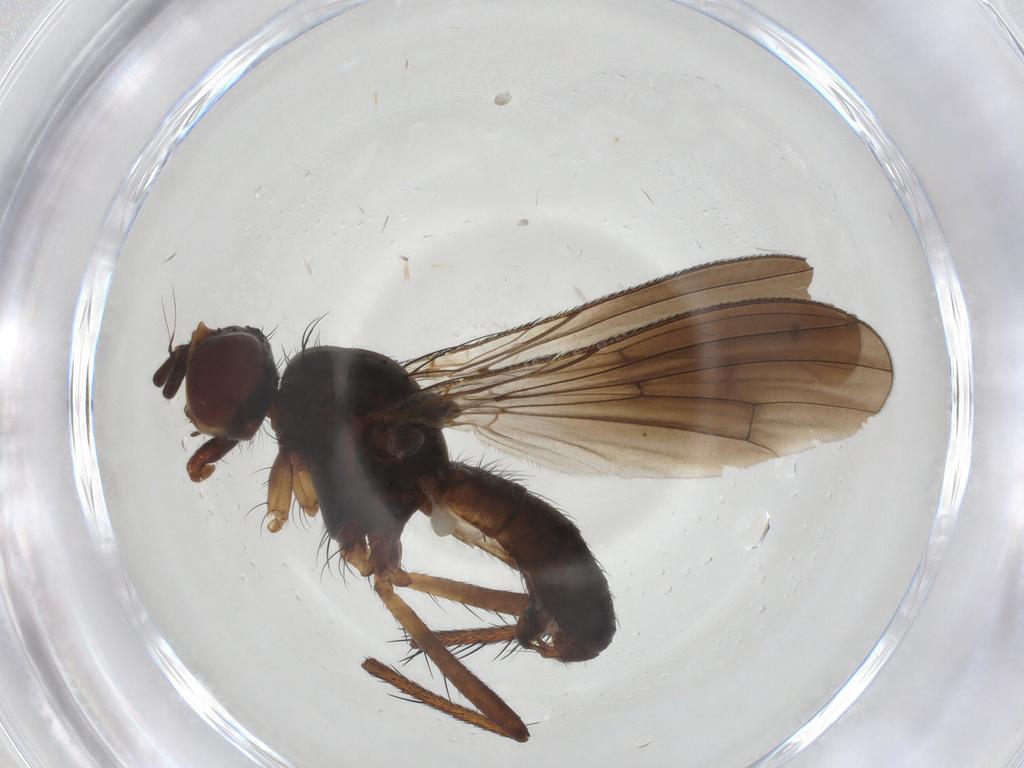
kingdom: Animalia
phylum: Arthropoda
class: Insecta
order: Diptera
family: Anthomyiidae
